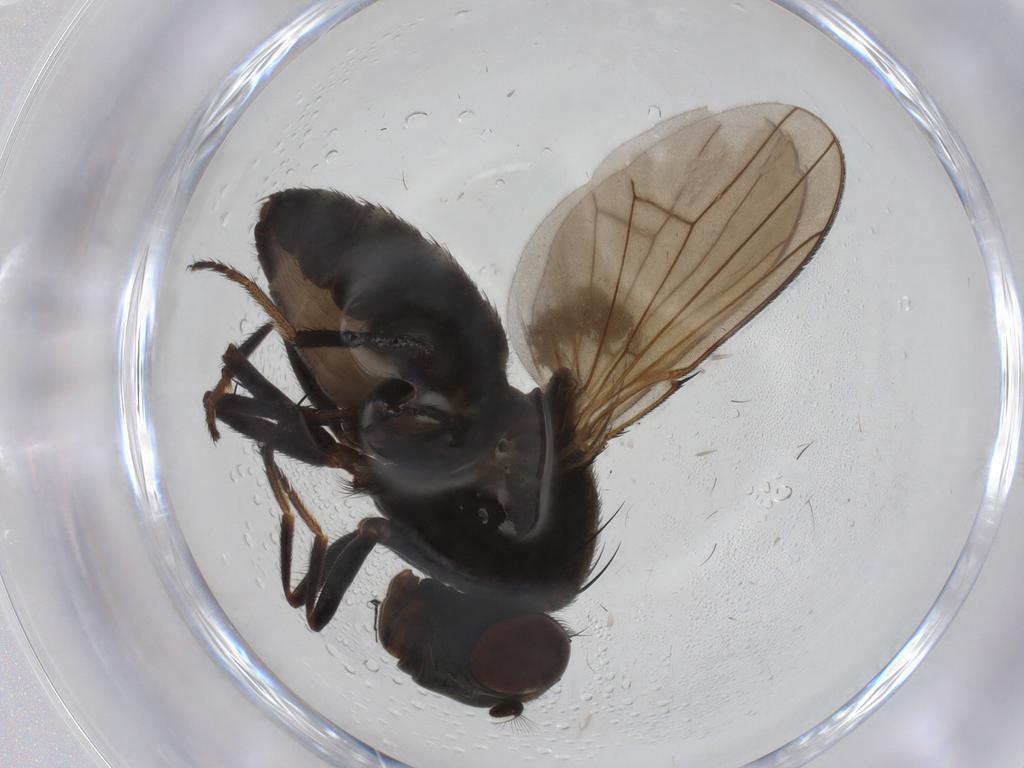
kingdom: Animalia
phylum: Arthropoda
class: Insecta
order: Diptera
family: Ephydridae
